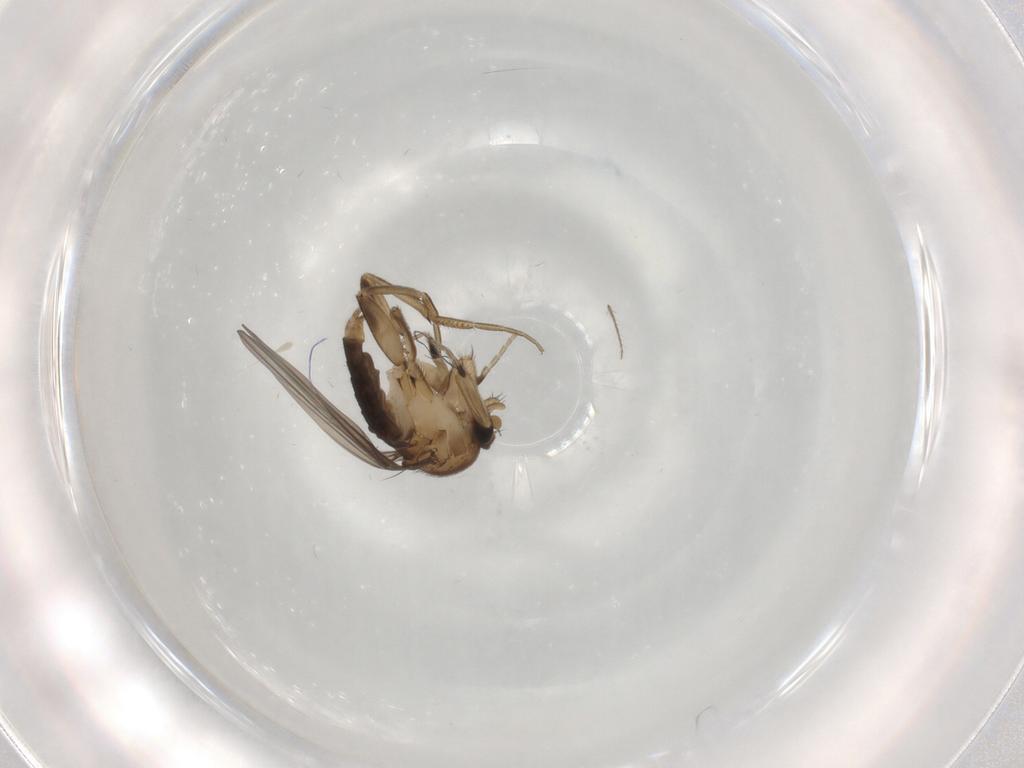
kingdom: Animalia
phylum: Arthropoda
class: Insecta
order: Diptera
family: Phoridae
